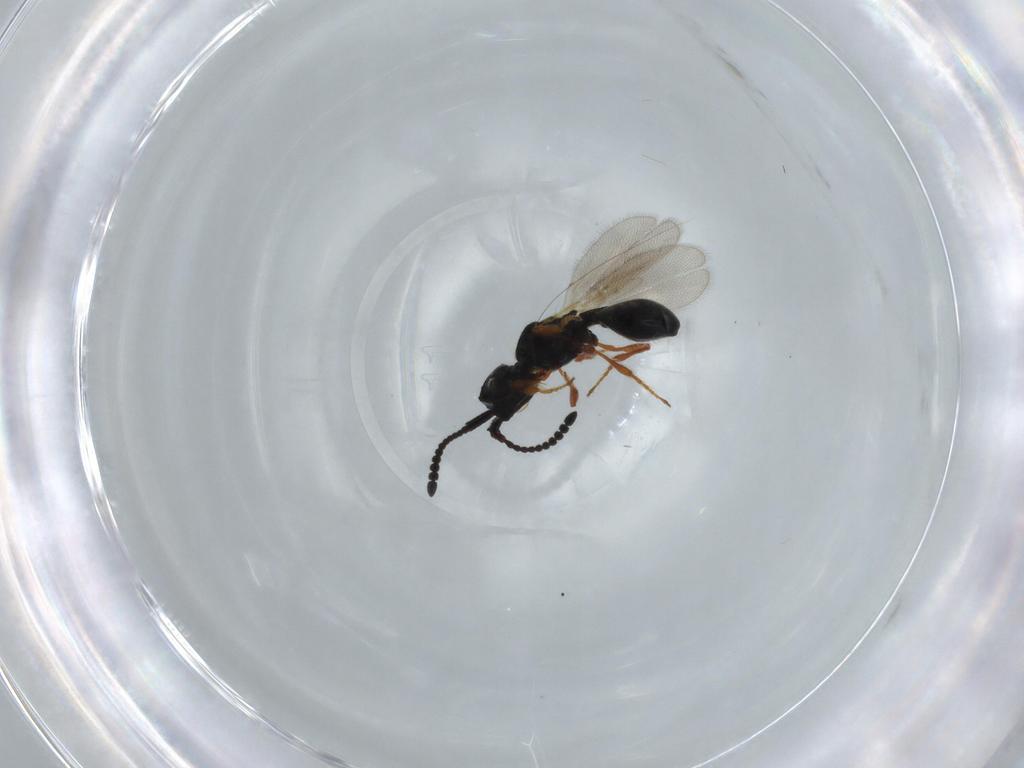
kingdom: Animalia
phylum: Arthropoda
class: Insecta
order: Hymenoptera
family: Diapriidae
